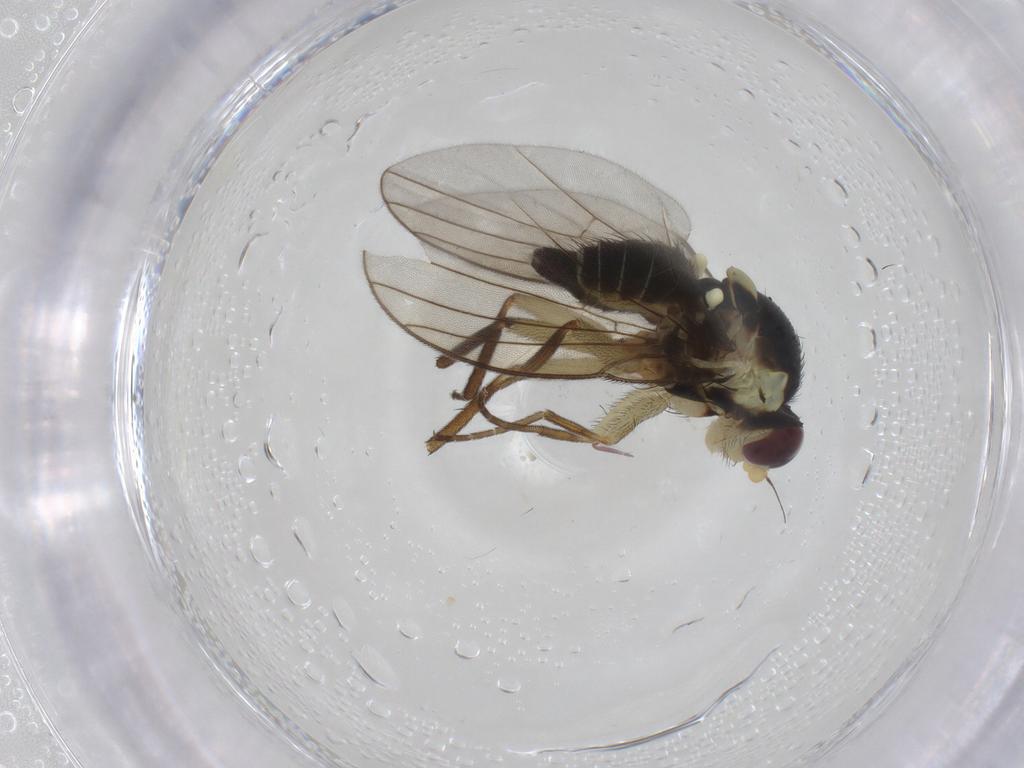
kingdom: Animalia
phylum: Arthropoda
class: Insecta
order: Diptera
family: Agromyzidae
